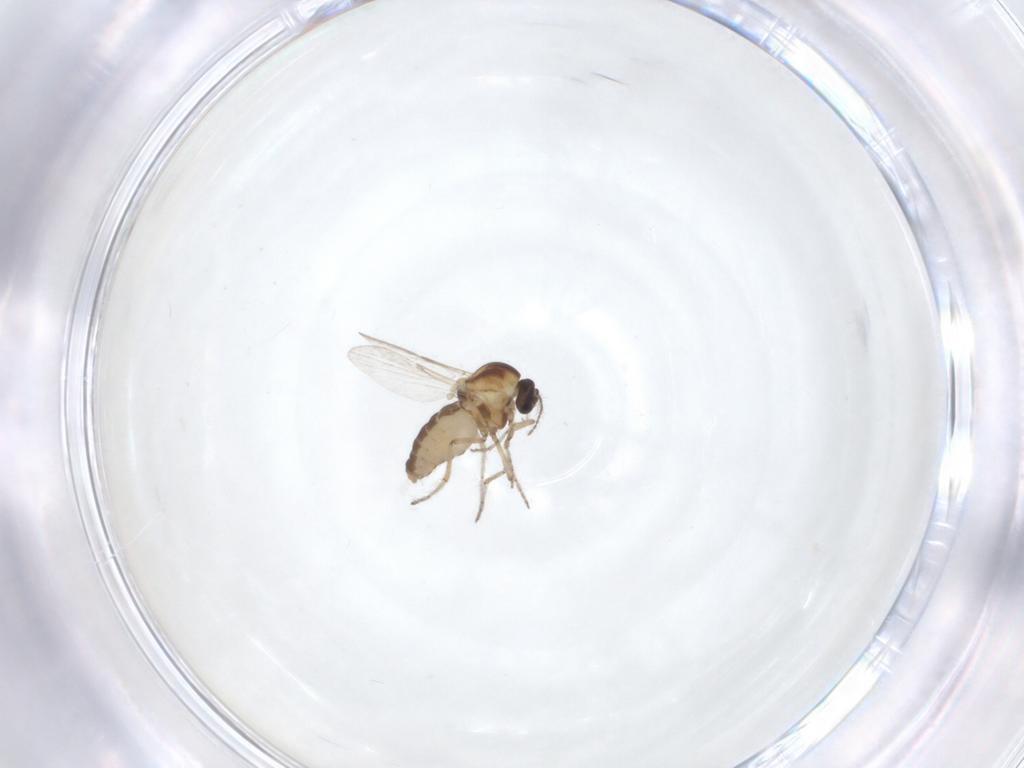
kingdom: Animalia
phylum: Arthropoda
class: Insecta
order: Diptera
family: Ceratopogonidae
